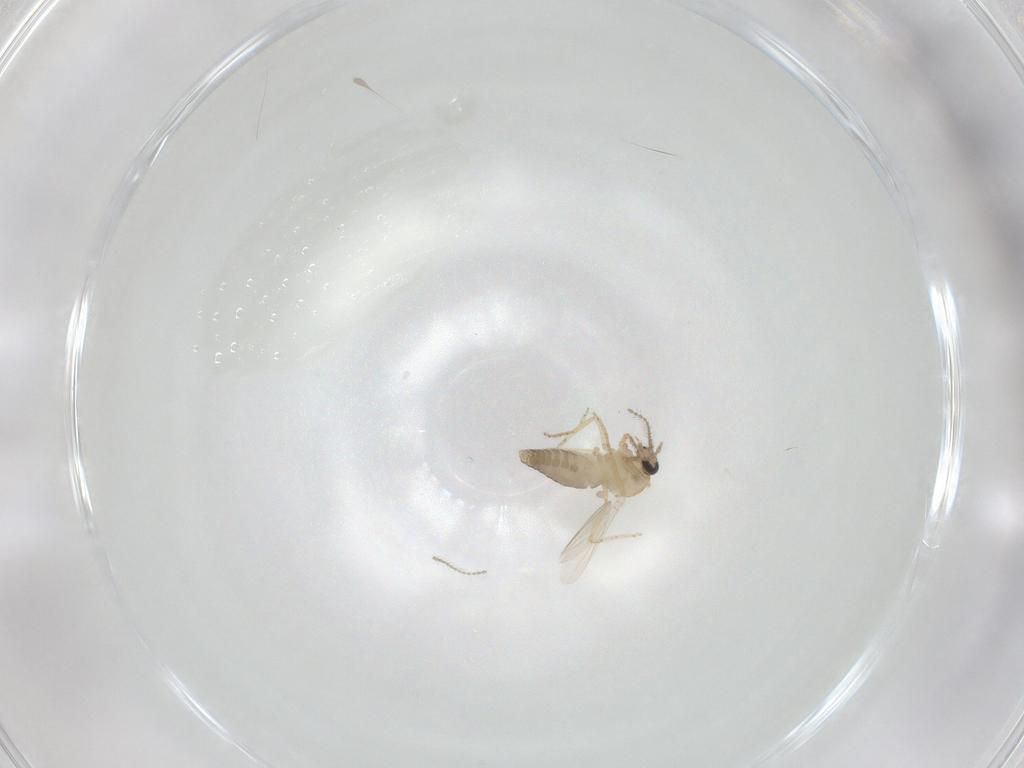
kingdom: Animalia
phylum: Arthropoda
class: Insecta
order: Diptera
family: Ceratopogonidae
